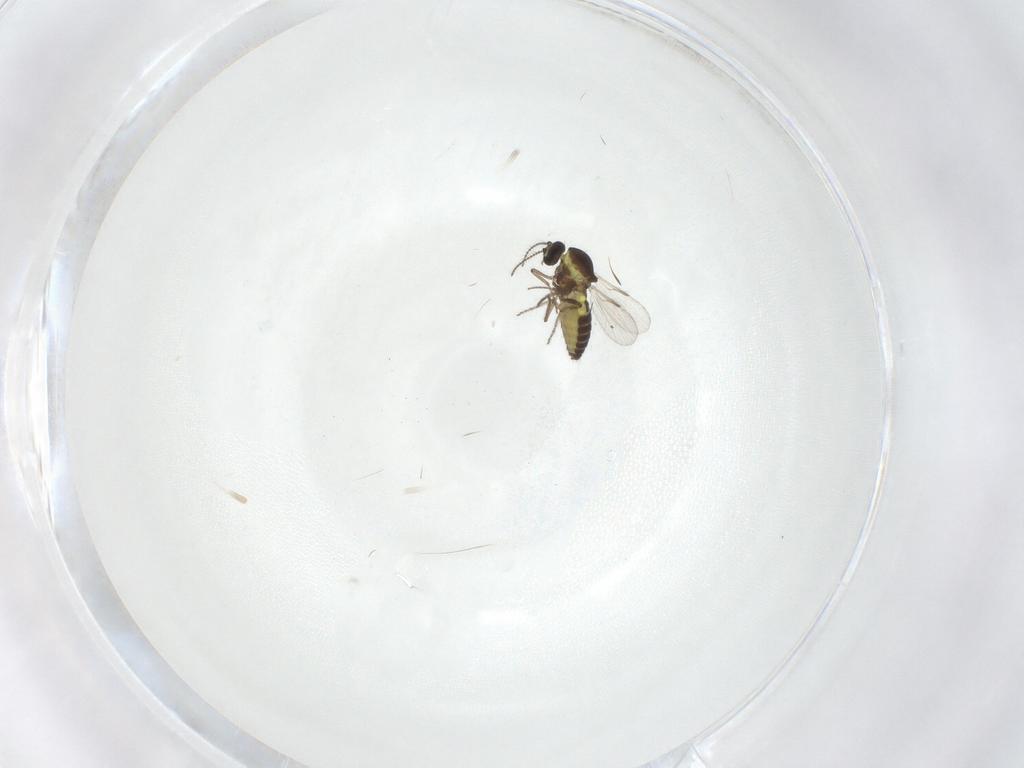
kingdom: Animalia
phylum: Arthropoda
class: Insecta
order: Diptera
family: Ceratopogonidae
